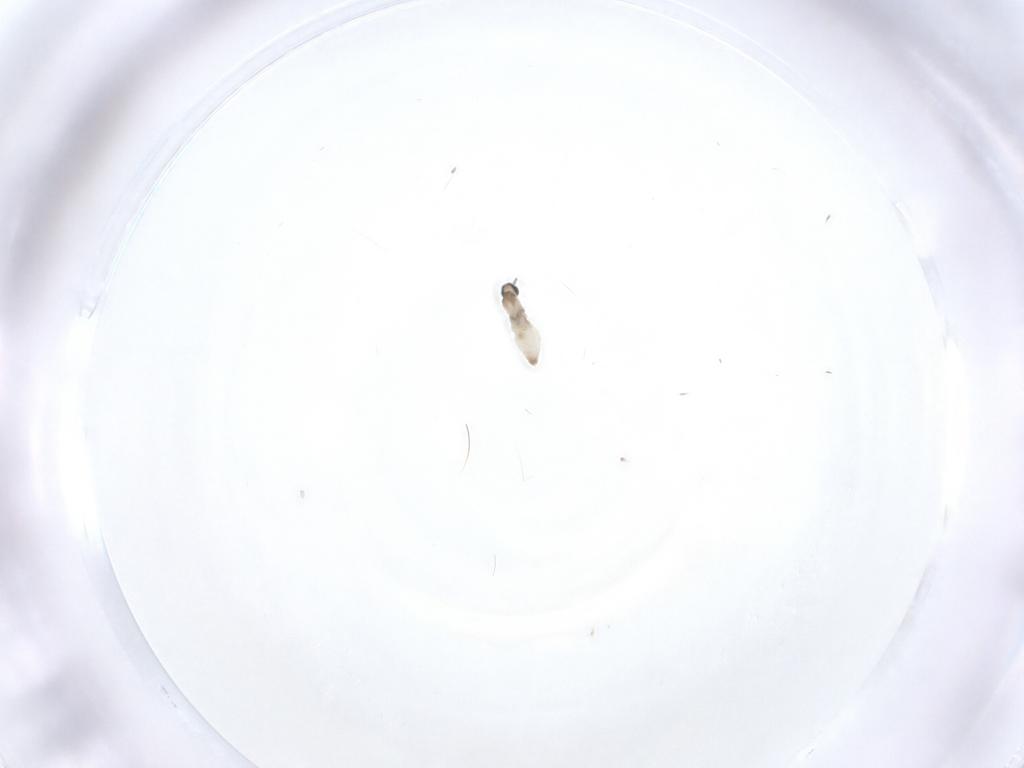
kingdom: Animalia
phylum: Arthropoda
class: Insecta
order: Diptera
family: Cecidomyiidae
